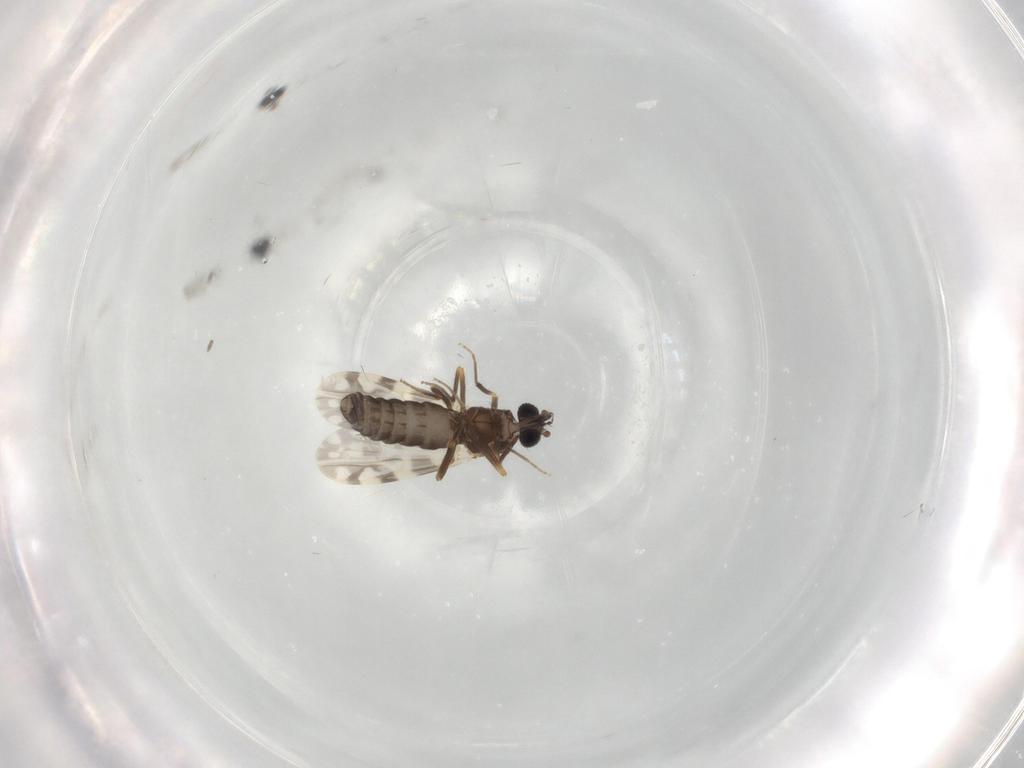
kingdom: Animalia
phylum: Arthropoda
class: Insecta
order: Diptera
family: Ceratopogonidae
